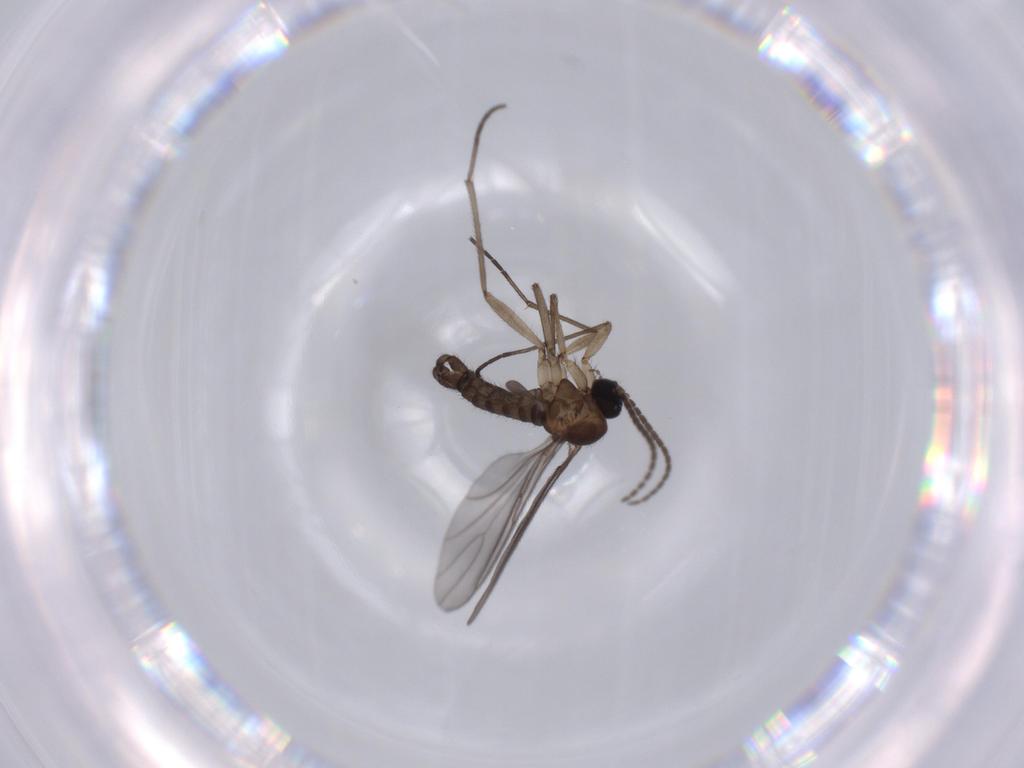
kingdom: Animalia
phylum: Arthropoda
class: Insecta
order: Diptera
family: Sciaridae
